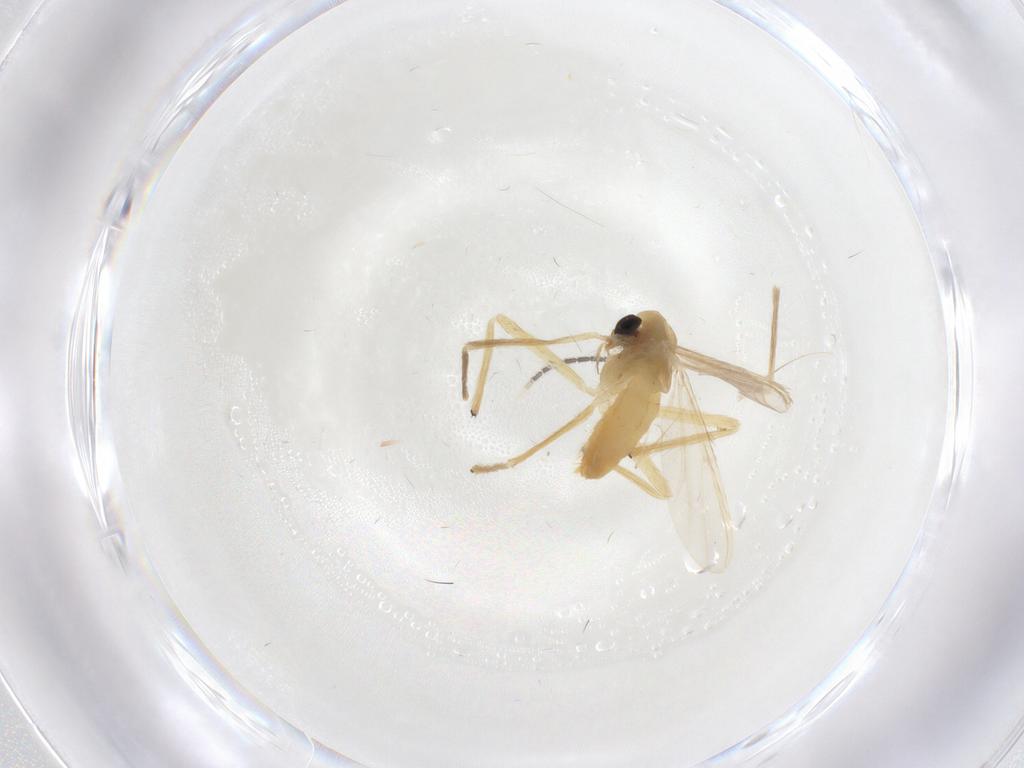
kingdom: Animalia
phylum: Arthropoda
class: Insecta
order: Diptera
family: Chironomidae
